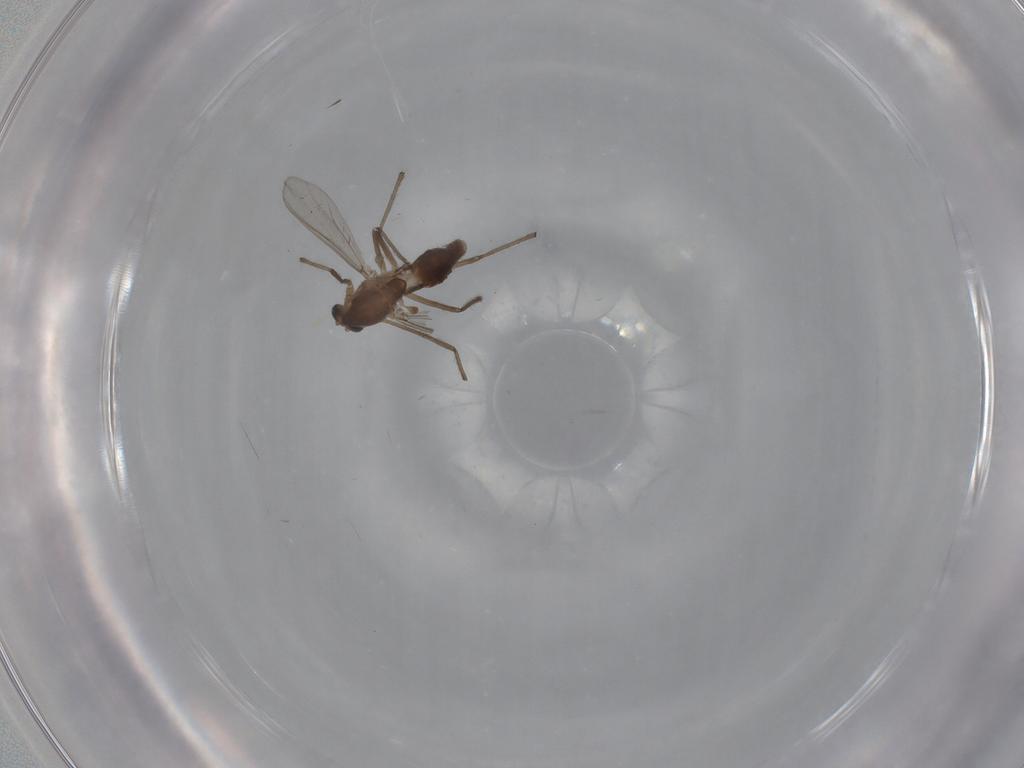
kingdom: Animalia
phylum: Arthropoda
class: Insecta
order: Diptera
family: Chironomidae
